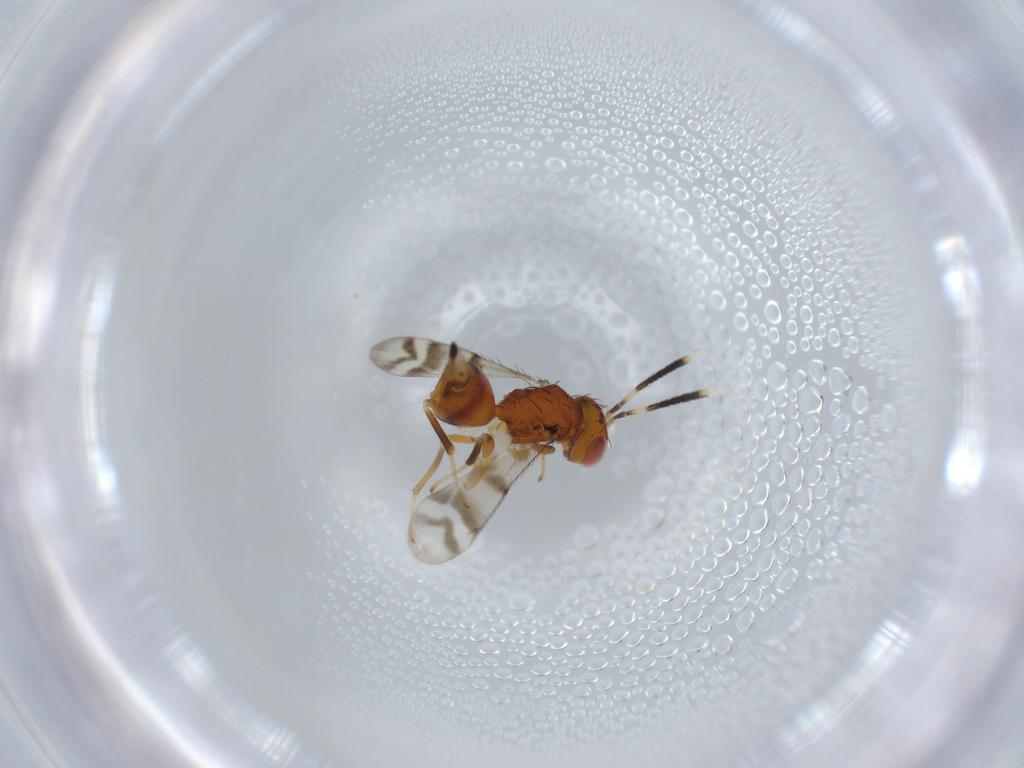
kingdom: Animalia
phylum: Arthropoda
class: Insecta
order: Hymenoptera
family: Diparidae
